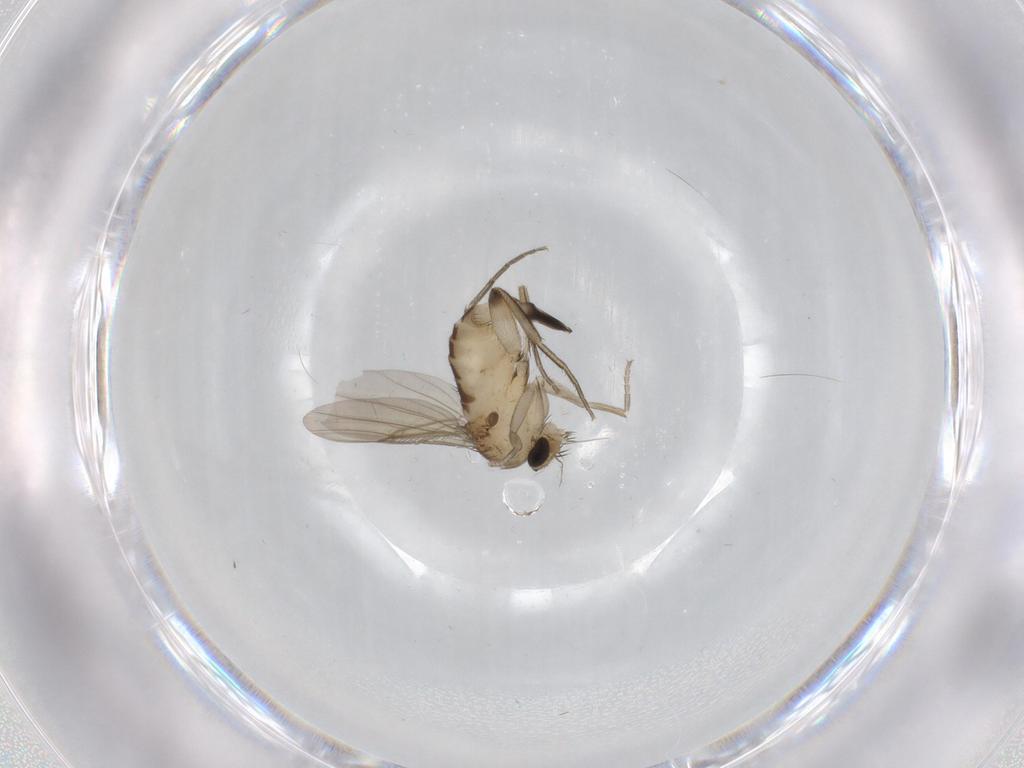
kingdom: Animalia
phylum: Arthropoda
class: Insecta
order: Diptera
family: Phoridae
